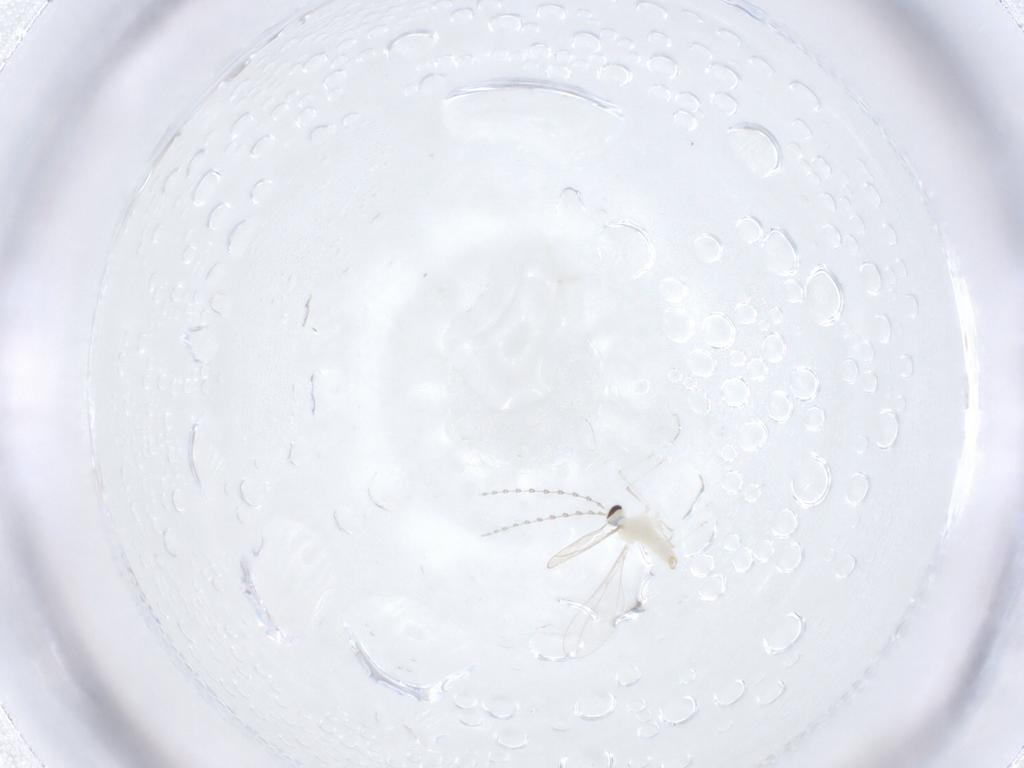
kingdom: Animalia
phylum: Arthropoda
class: Insecta
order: Diptera
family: Cecidomyiidae
